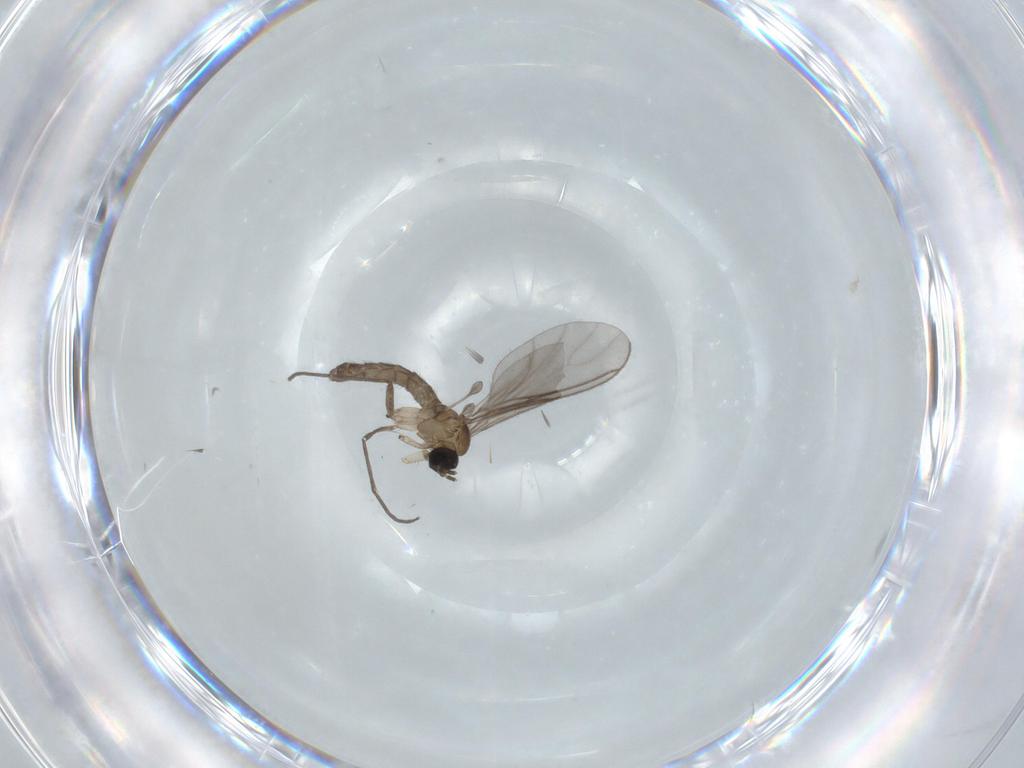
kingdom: Animalia
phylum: Arthropoda
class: Insecta
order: Diptera
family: Sciaridae
